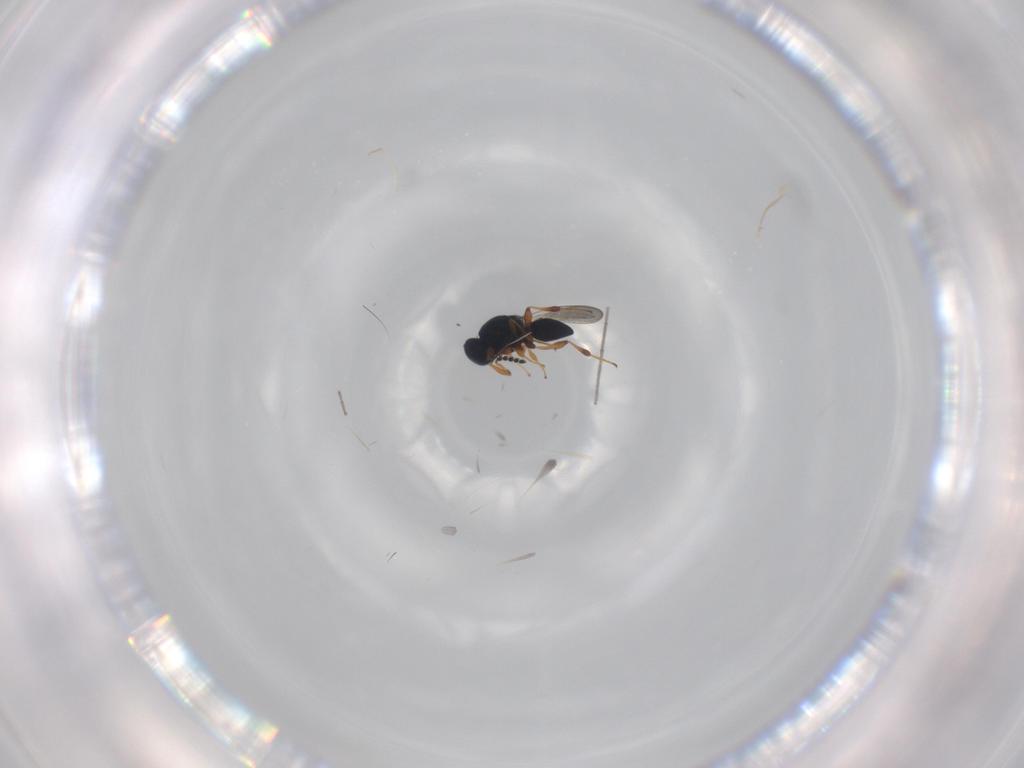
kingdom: Animalia
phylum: Arthropoda
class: Insecta
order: Hymenoptera
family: Platygastridae
